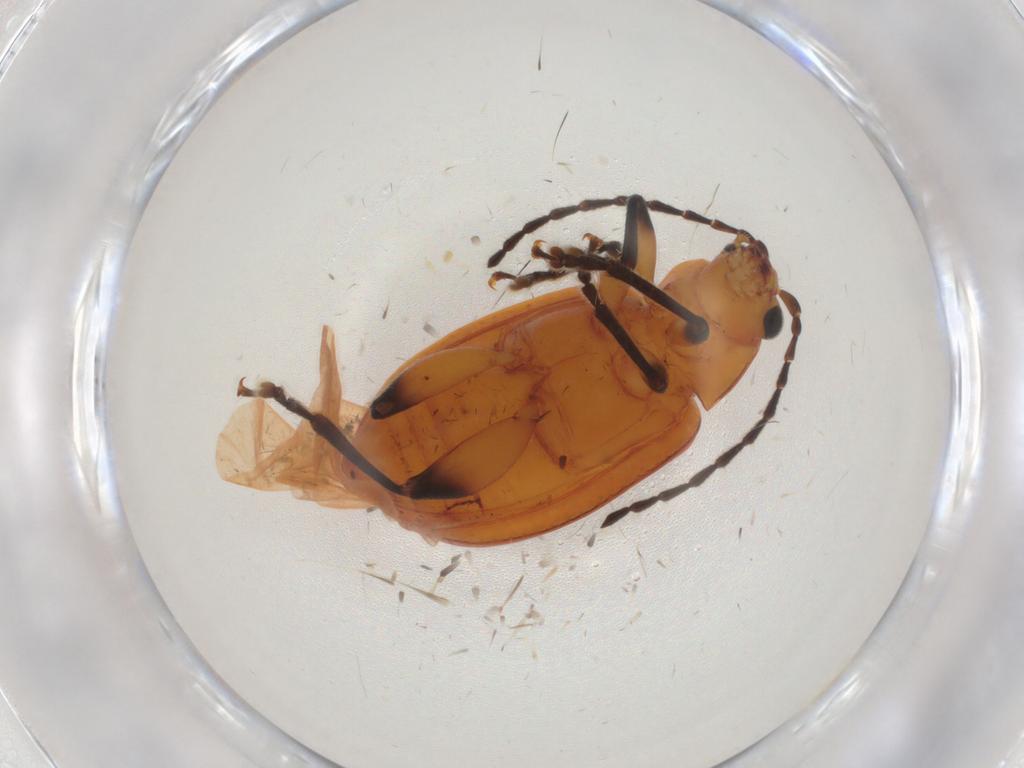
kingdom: Animalia
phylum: Arthropoda
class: Insecta
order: Coleoptera
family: Chrysomelidae
